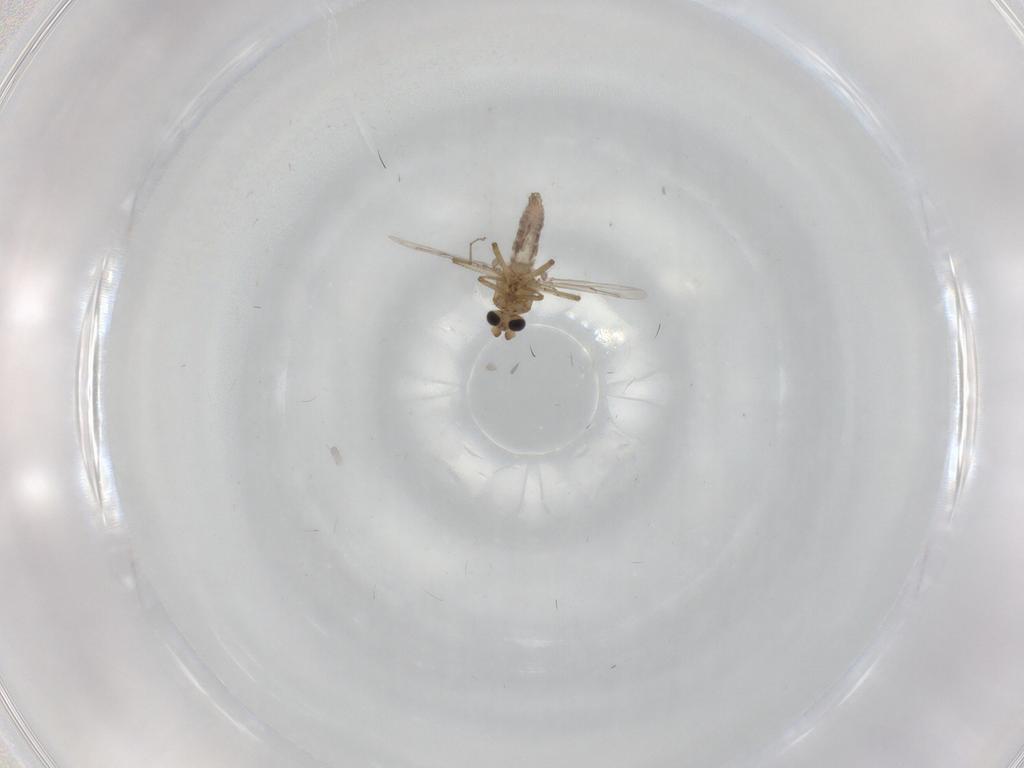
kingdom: Animalia
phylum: Arthropoda
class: Insecta
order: Diptera
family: Ceratopogonidae
